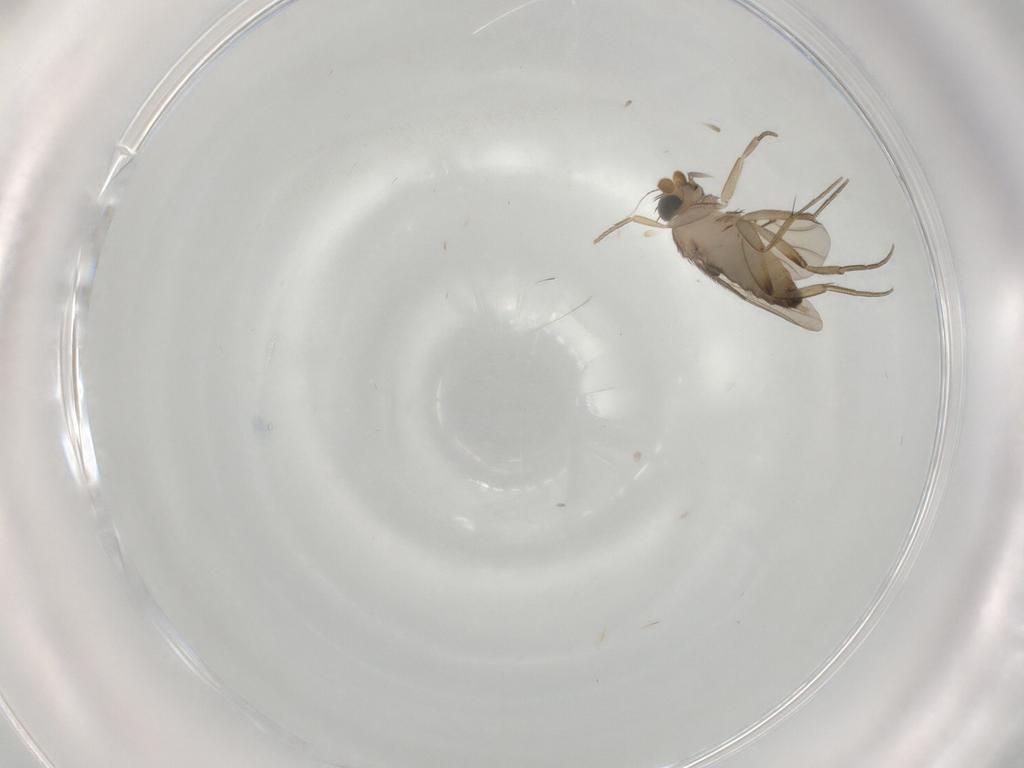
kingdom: Animalia
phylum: Arthropoda
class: Insecta
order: Diptera
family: Phoridae
